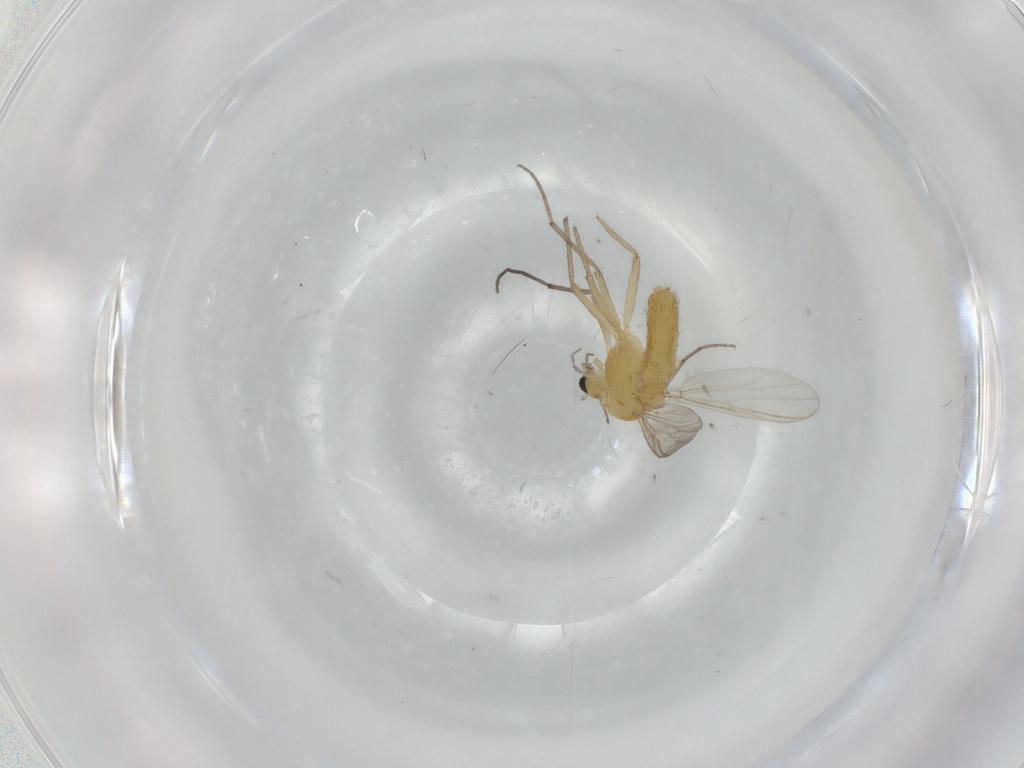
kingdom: Animalia
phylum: Arthropoda
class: Insecta
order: Diptera
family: Chironomidae
